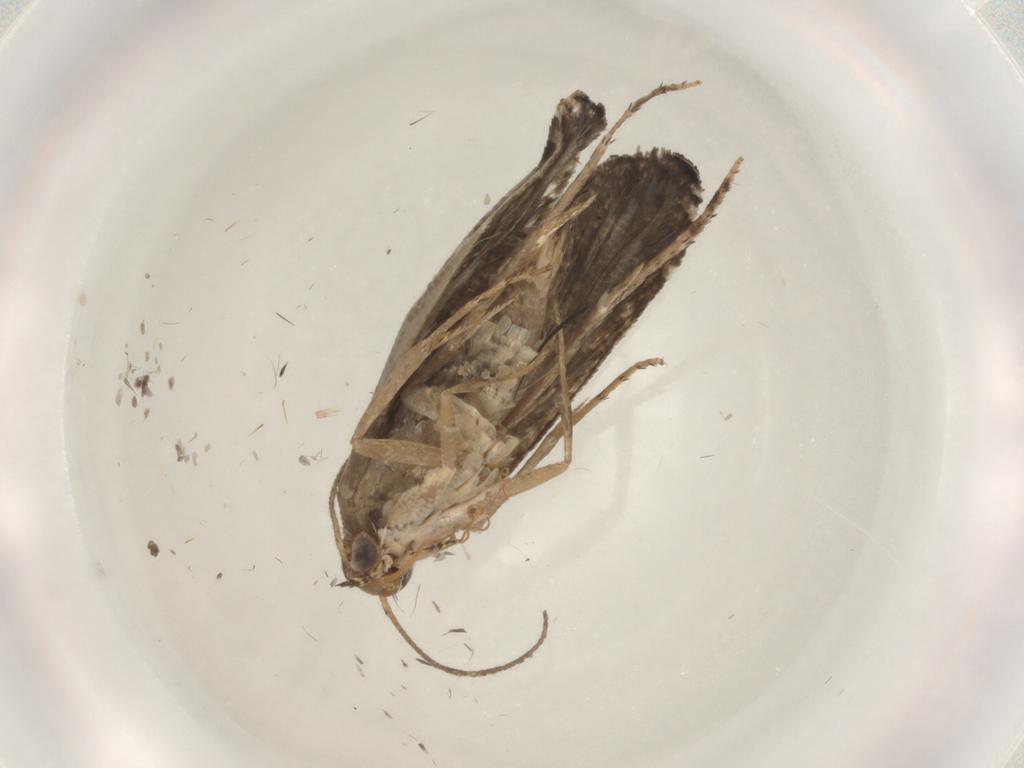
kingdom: Animalia
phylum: Arthropoda
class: Insecta
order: Lepidoptera
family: Glyphipterigidae
